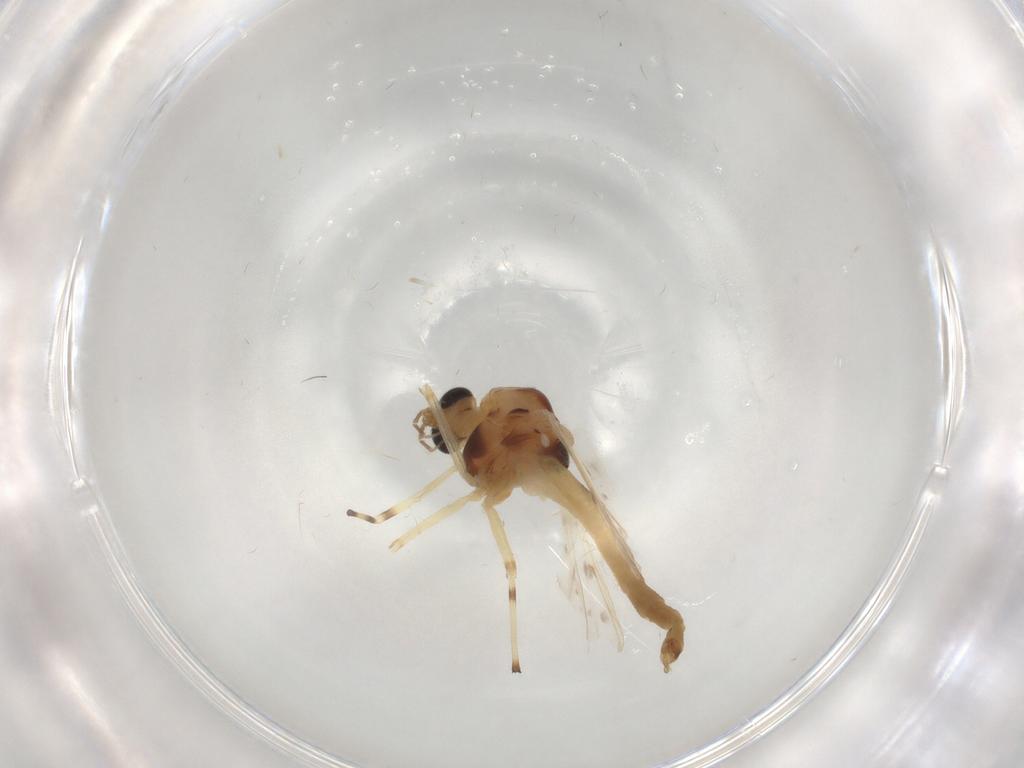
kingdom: Animalia
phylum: Arthropoda
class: Insecta
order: Diptera
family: Chironomidae
